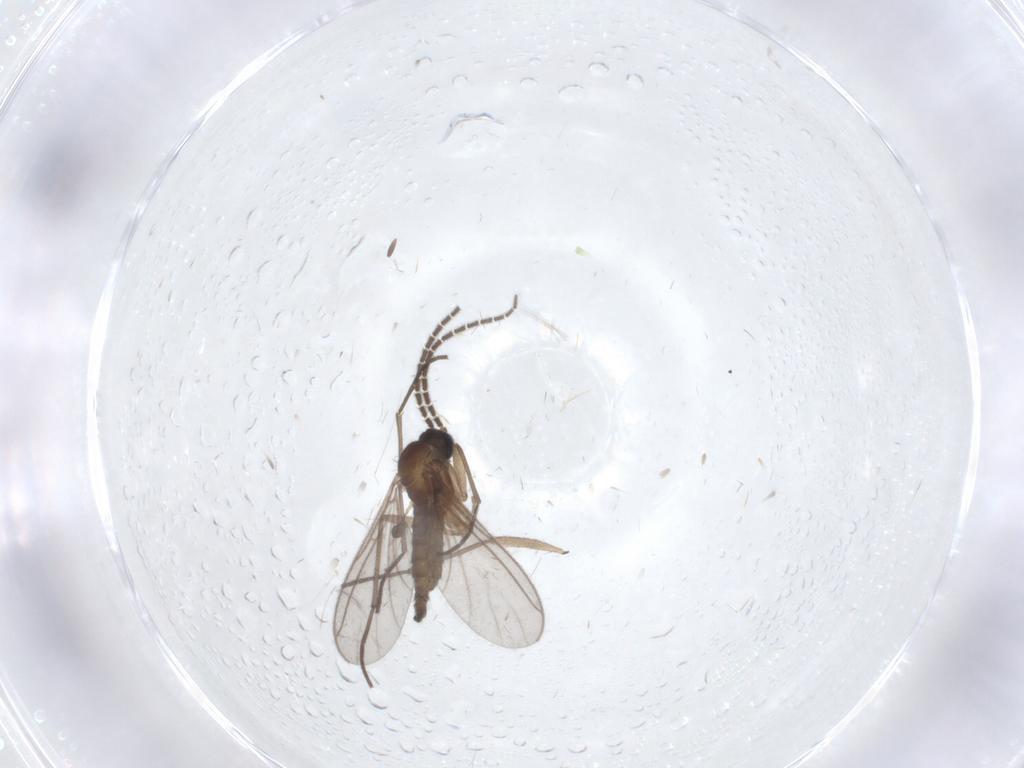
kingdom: Animalia
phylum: Arthropoda
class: Insecta
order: Diptera
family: Sciaridae
